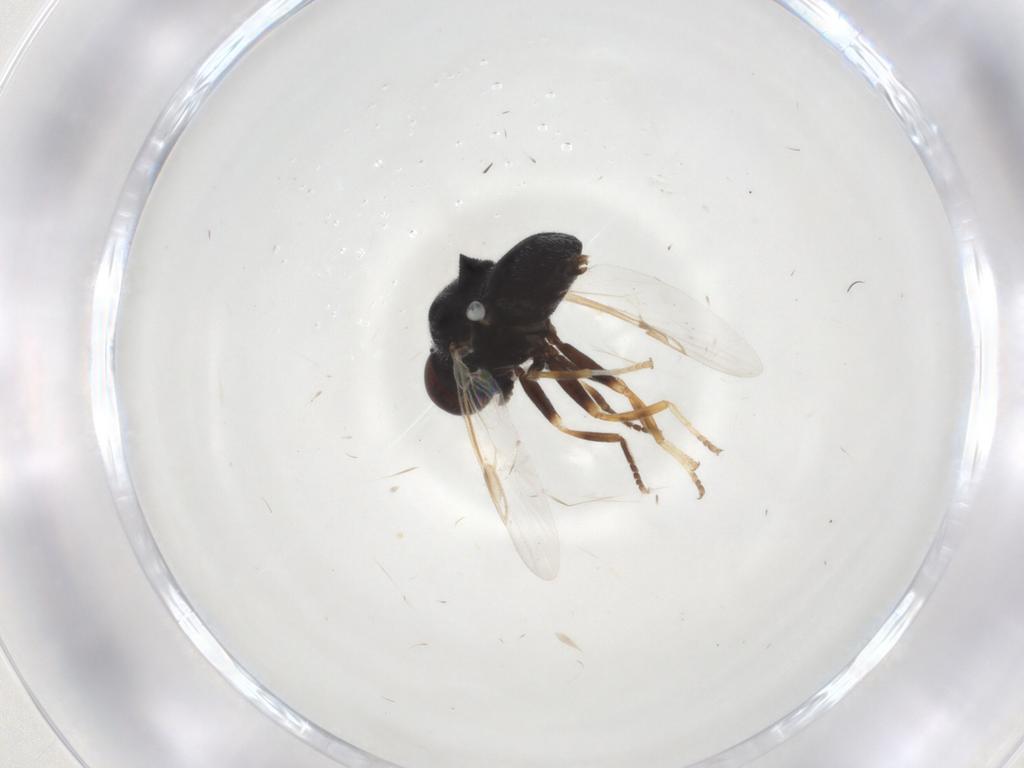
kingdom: Animalia
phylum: Arthropoda
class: Insecta
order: Diptera
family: Stratiomyidae
